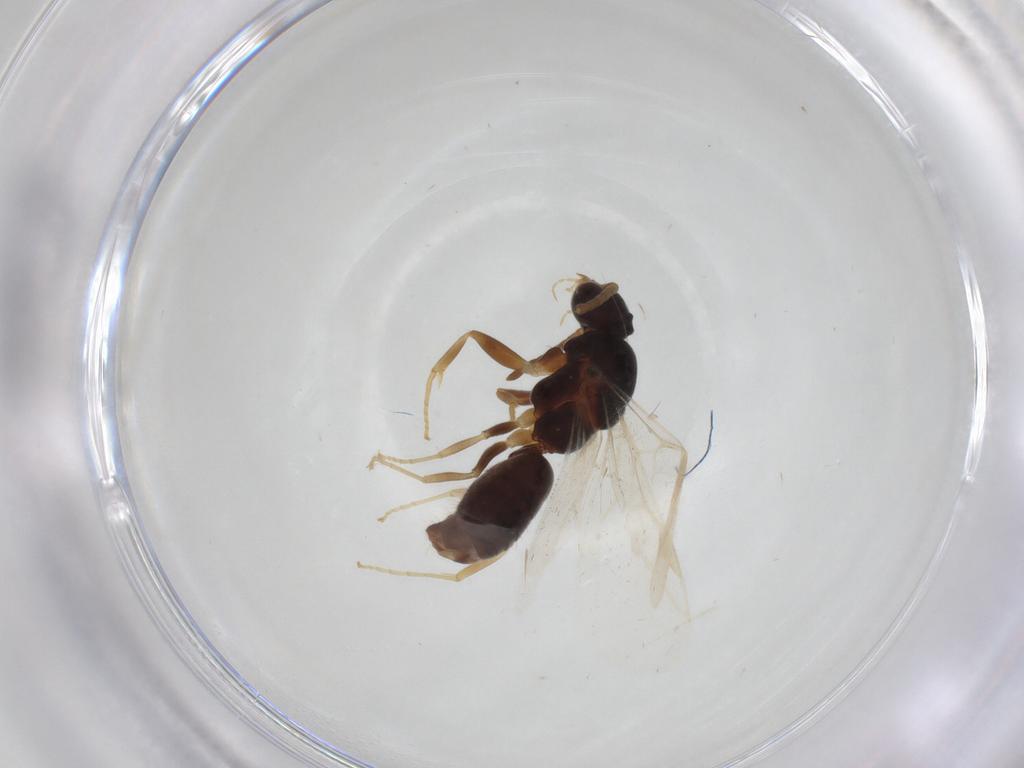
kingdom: Animalia
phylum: Arthropoda
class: Insecta
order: Hymenoptera
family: Formicidae
